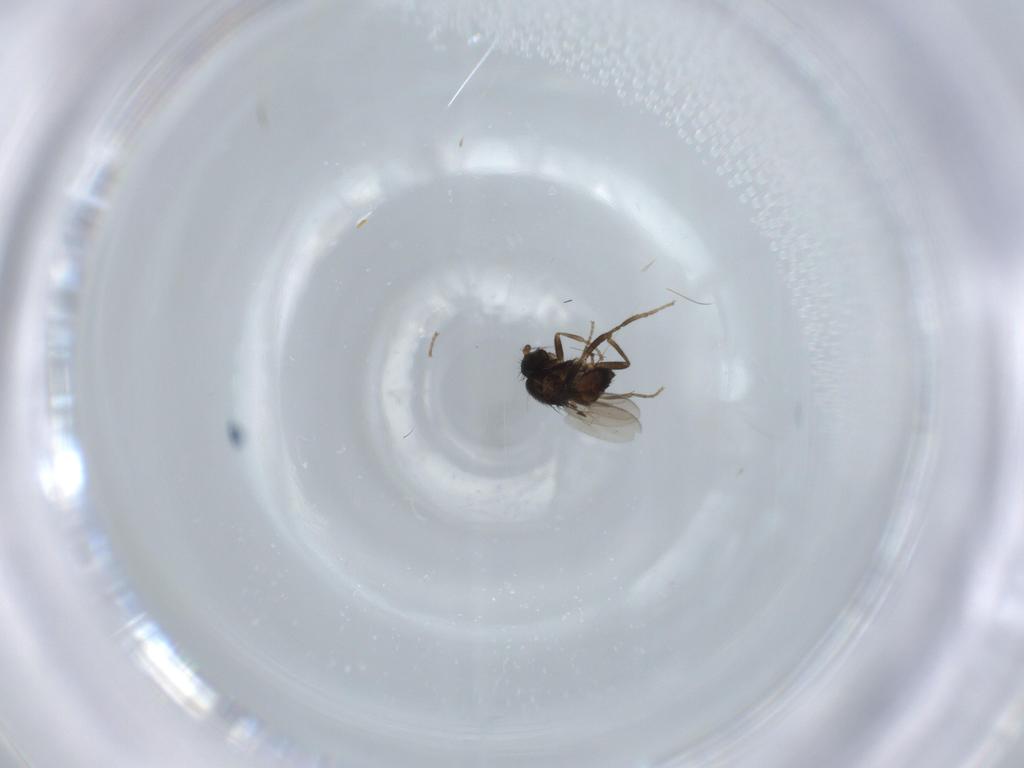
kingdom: Animalia
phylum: Arthropoda
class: Insecta
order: Diptera
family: Sphaeroceridae
